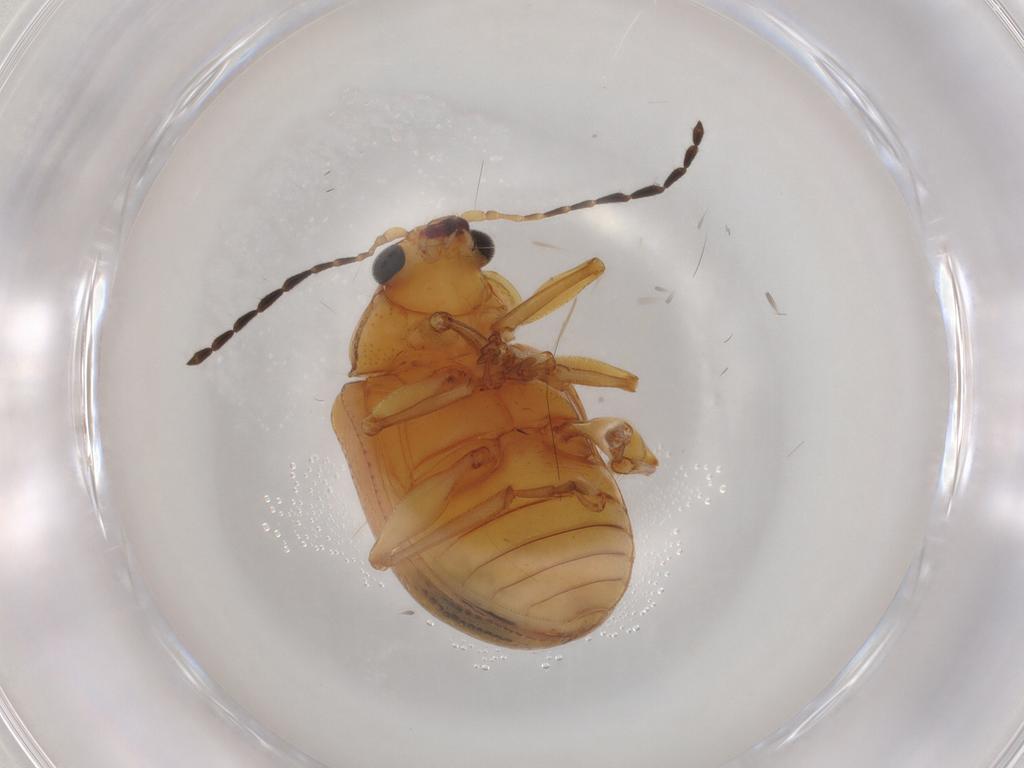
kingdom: Animalia
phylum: Arthropoda
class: Insecta
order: Coleoptera
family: Chrysomelidae
